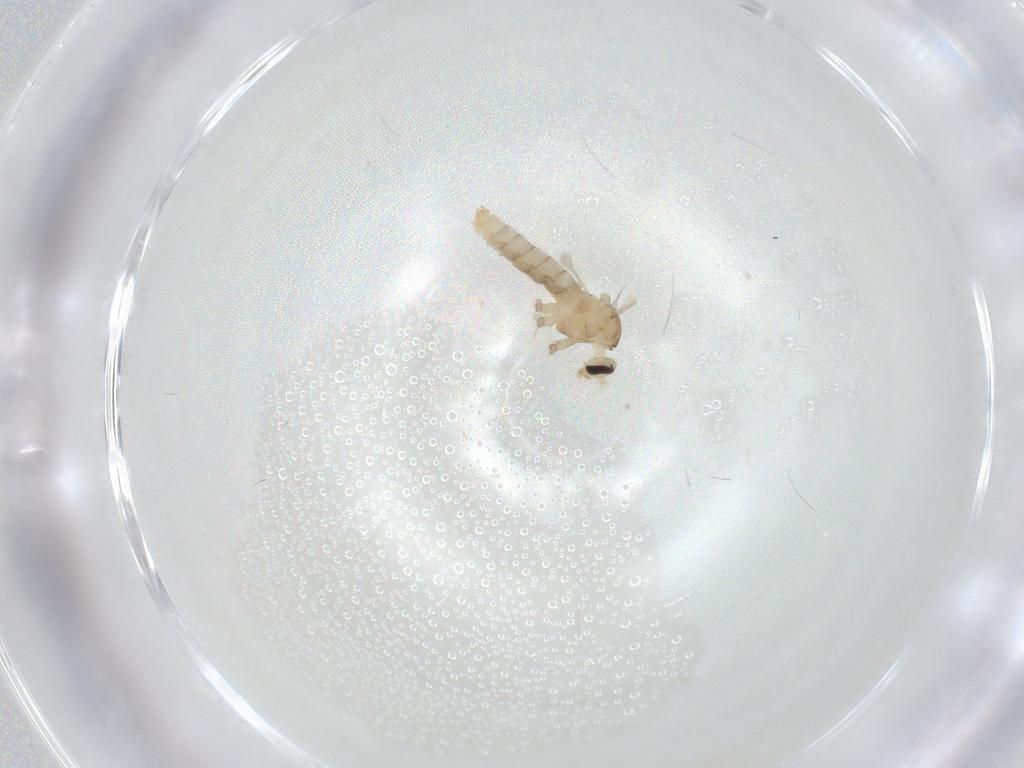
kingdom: Animalia
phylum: Arthropoda
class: Insecta
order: Diptera
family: Cecidomyiidae
